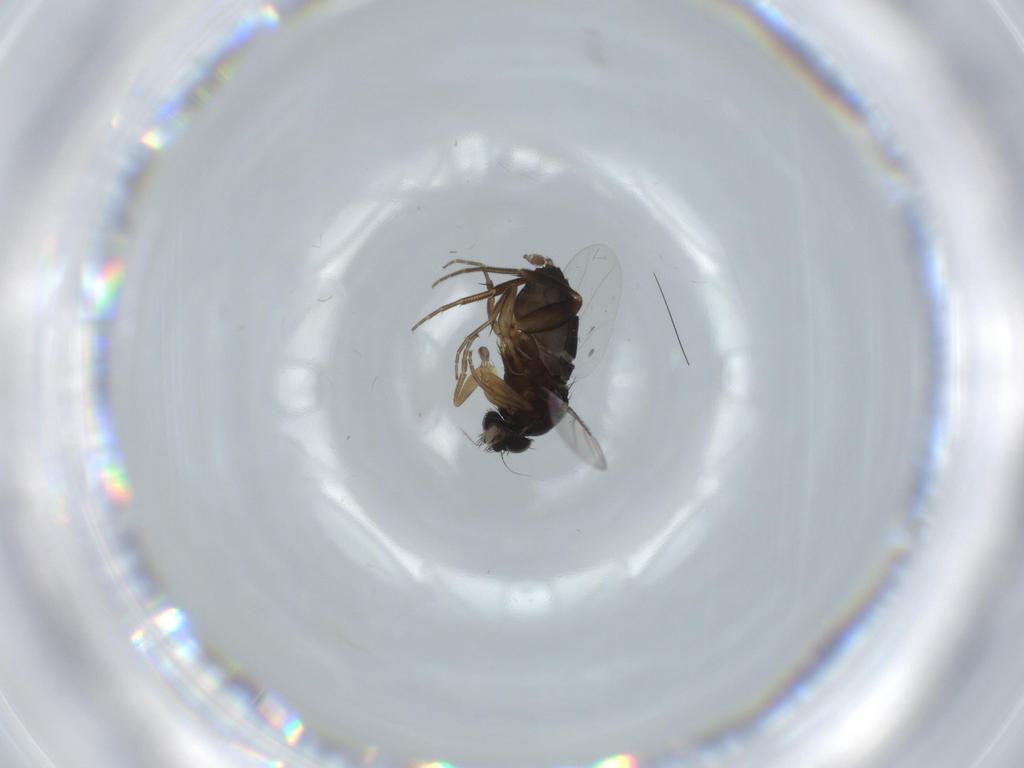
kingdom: Animalia
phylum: Arthropoda
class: Insecta
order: Diptera
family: Phoridae
